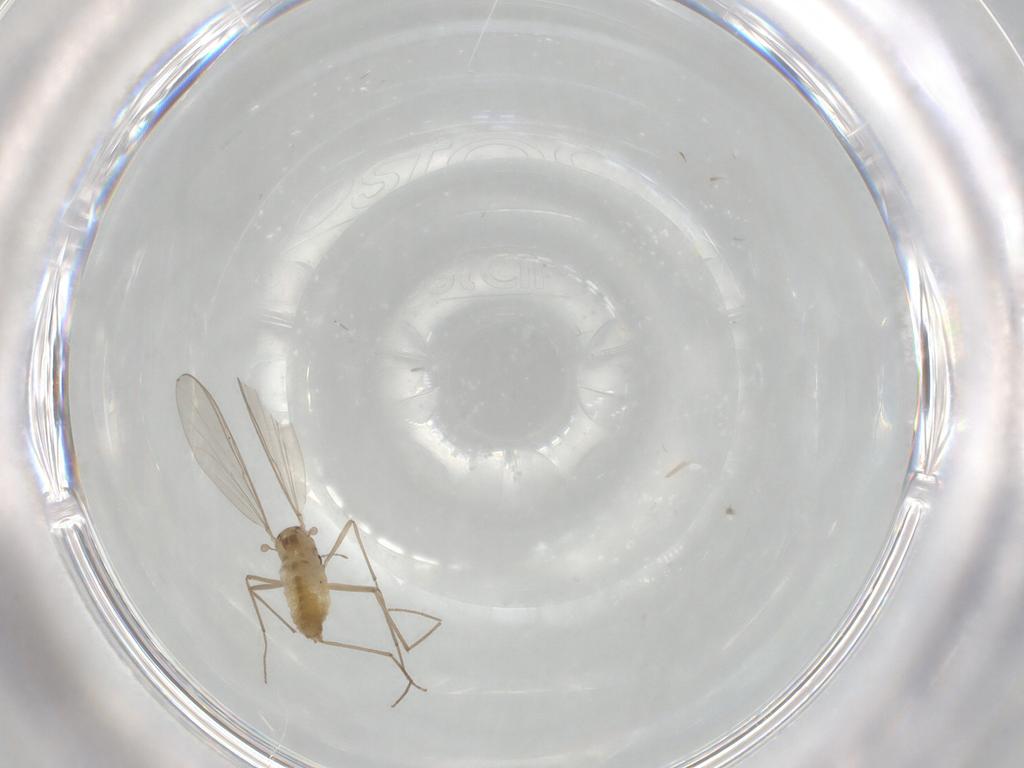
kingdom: Animalia
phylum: Arthropoda
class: Insecta
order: Diptera
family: Chironomidae
